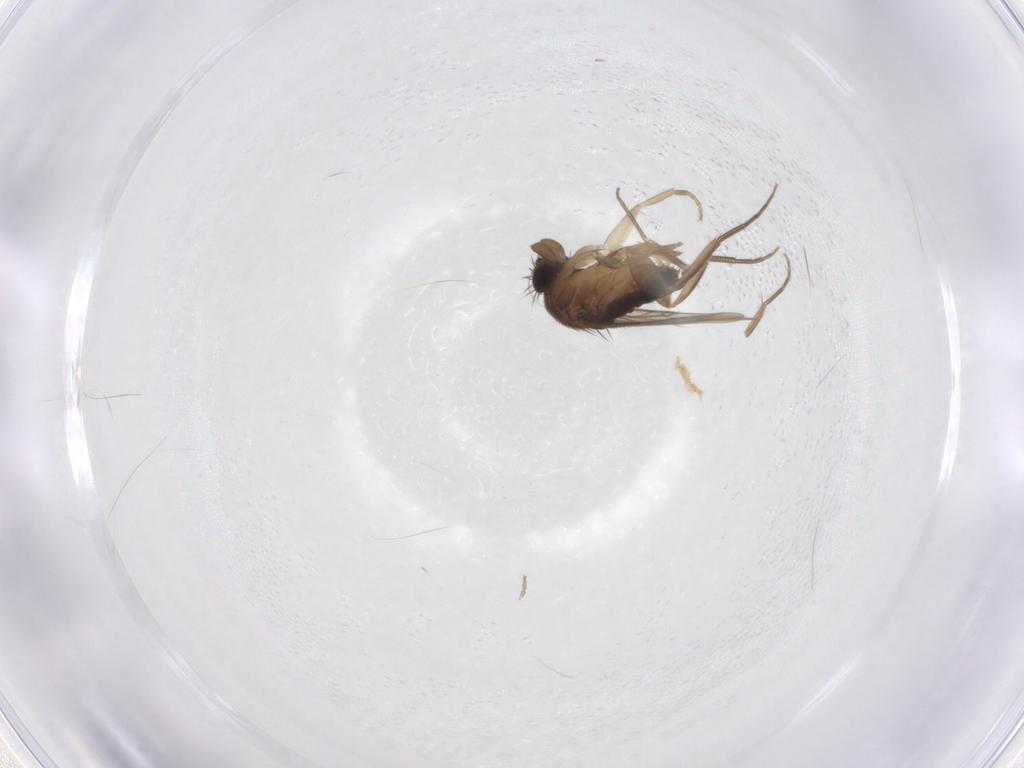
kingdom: Animalia
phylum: Arthropoda
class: Insecta
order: Diptera
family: Phoridae
